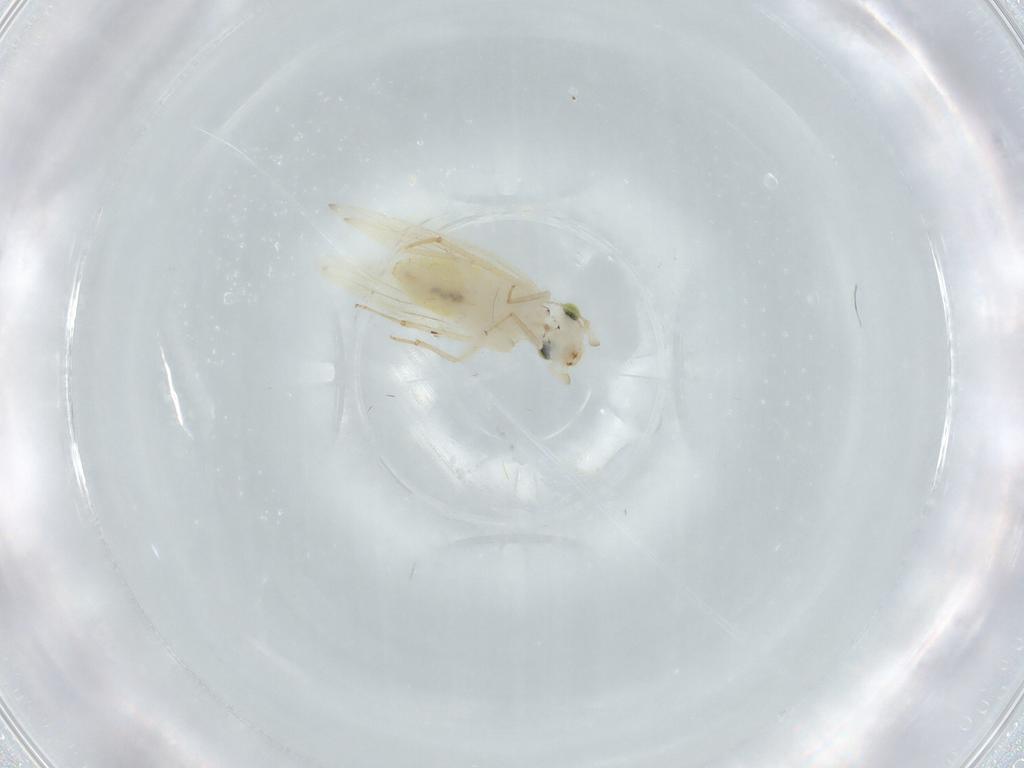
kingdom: Animalia
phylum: Arthropoda
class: Insecta
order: Psocodea
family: Lepidopsocidae
